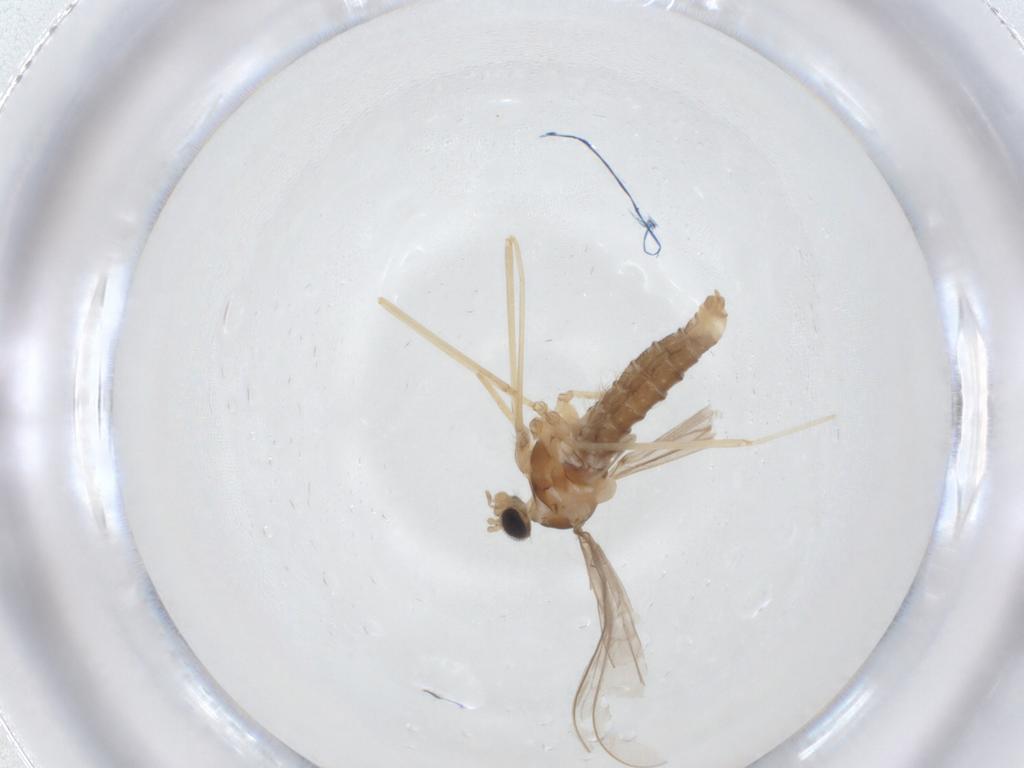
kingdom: Animalia
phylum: Arthropoda
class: Insecta
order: Diptera
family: Cecidomyiidae
